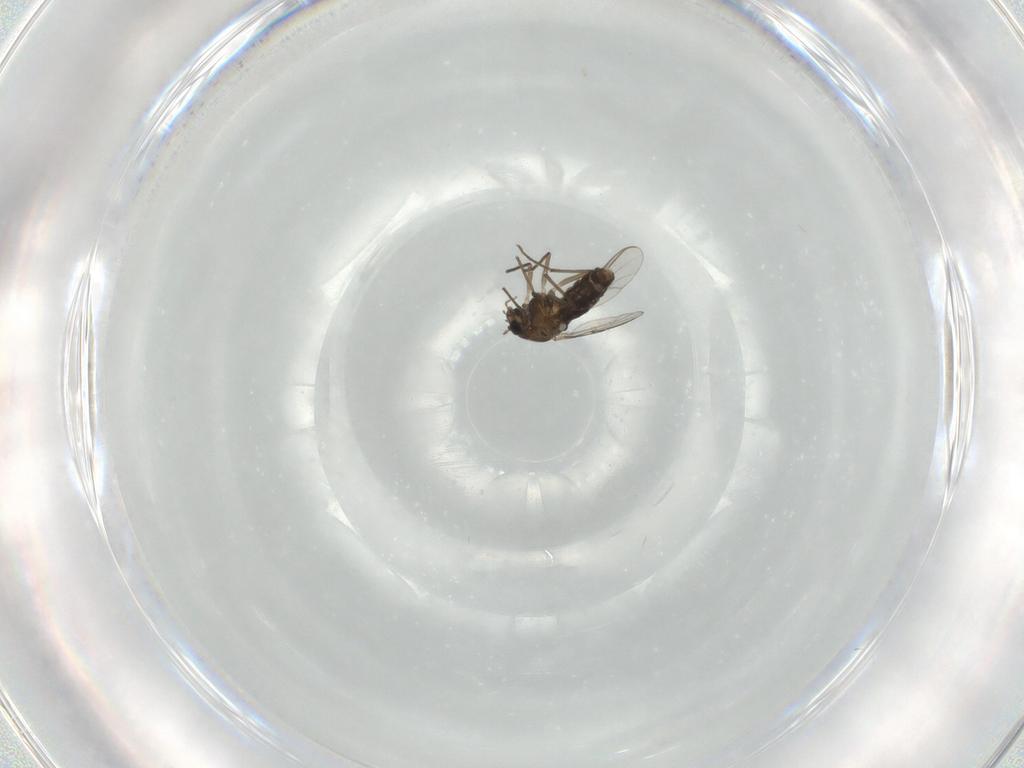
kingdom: Animalia
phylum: Arthropoda
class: Insecta
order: Diptera
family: Chironomidae
